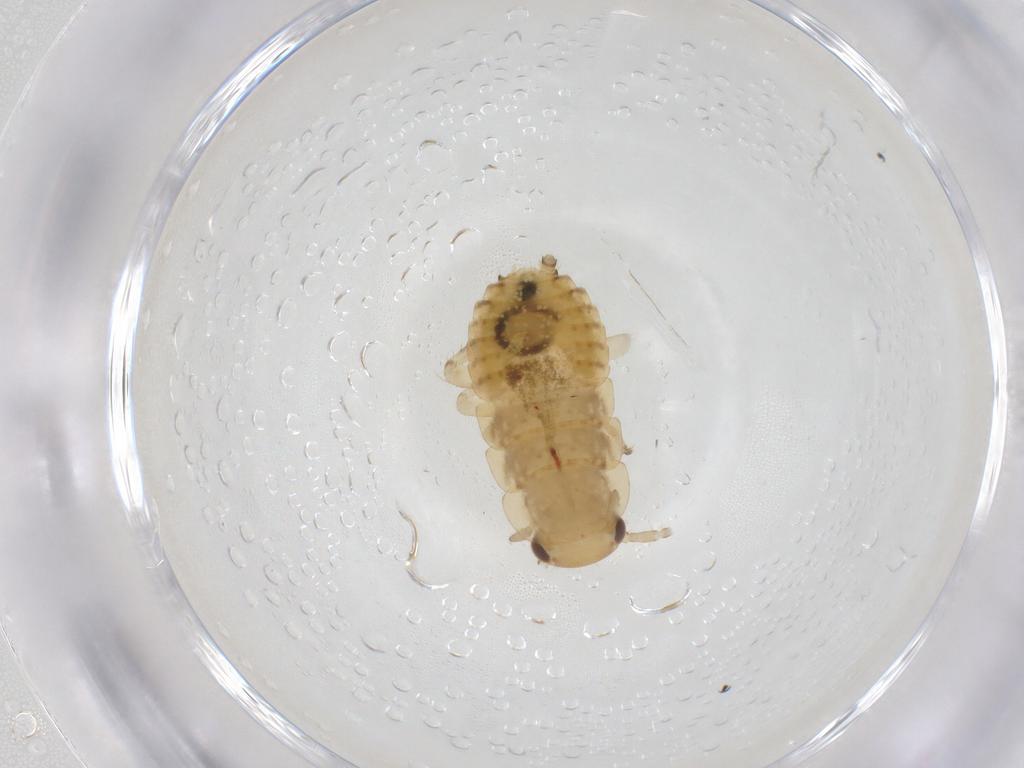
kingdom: Animalia
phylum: Arthropoda
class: Insecta
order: Blattodea
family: Ectobiidae
